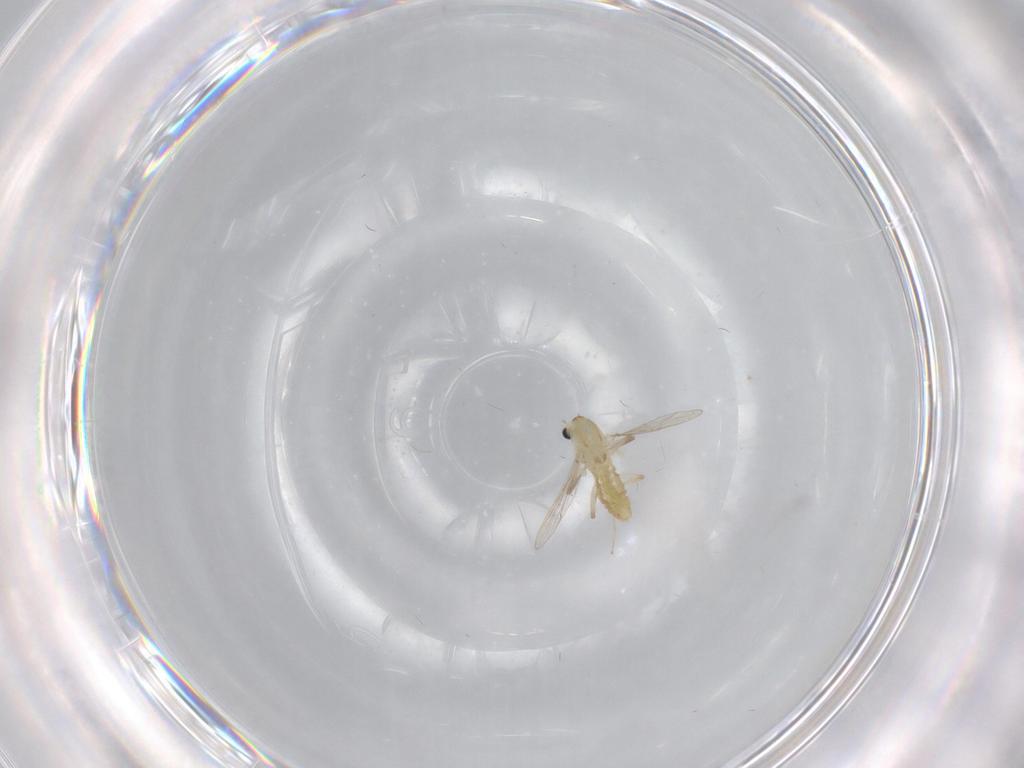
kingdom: Animalia
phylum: Arthropoda
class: Insecta
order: Diptera
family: Chironomidae
